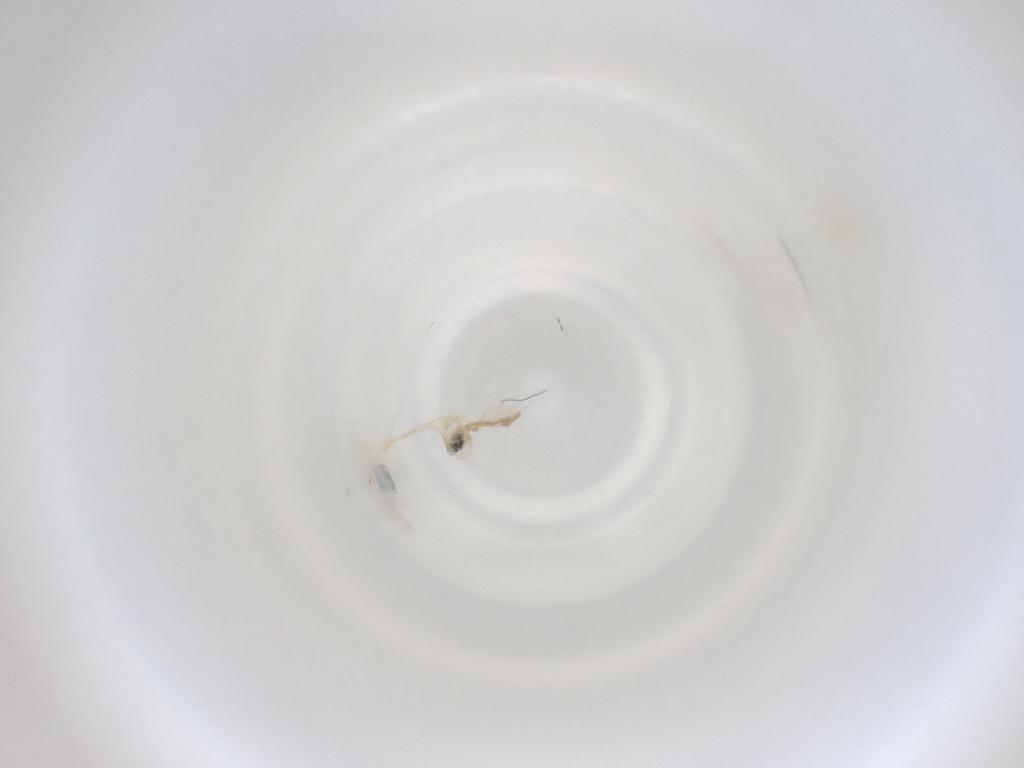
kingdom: Animalia
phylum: Arthropoda
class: Insecta
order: Diptera
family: Cecidomyiidae
